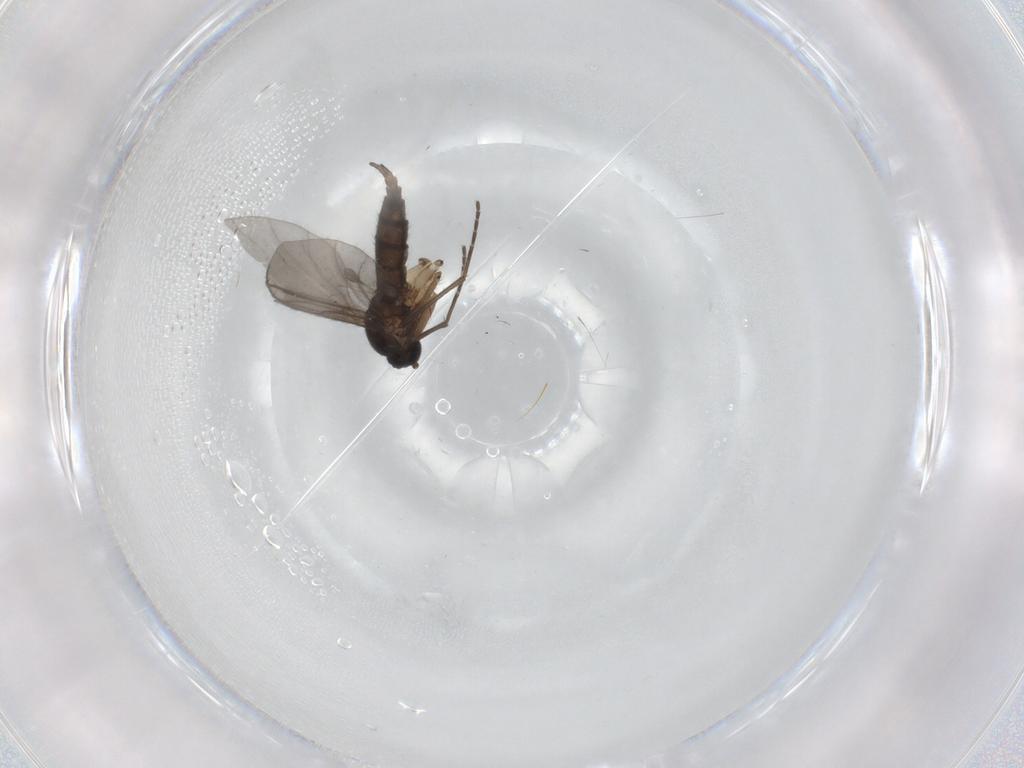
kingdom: Animalia
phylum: Arthropoda
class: Insecta
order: Diptera
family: Sciaridae
